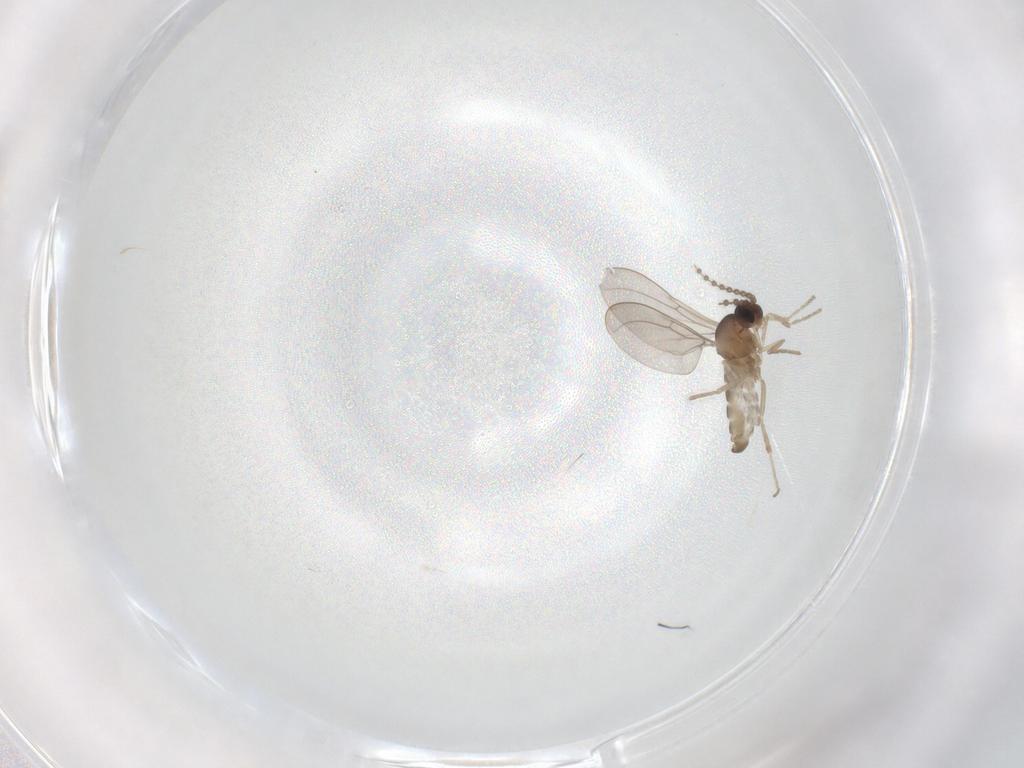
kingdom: Animalia
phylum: Arthropoda
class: Insecta
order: Diptera
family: Cecidomyiidae
